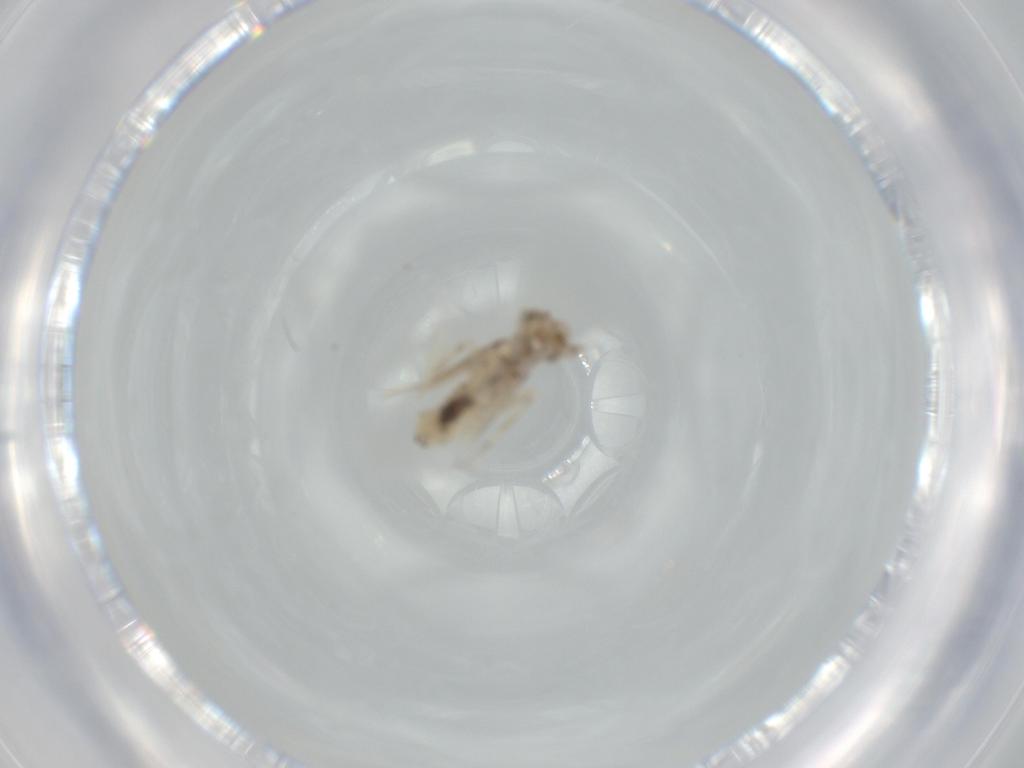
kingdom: Animalia
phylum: Arthropoda
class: Insecta
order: Psocodea
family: Lepidopsocidae
